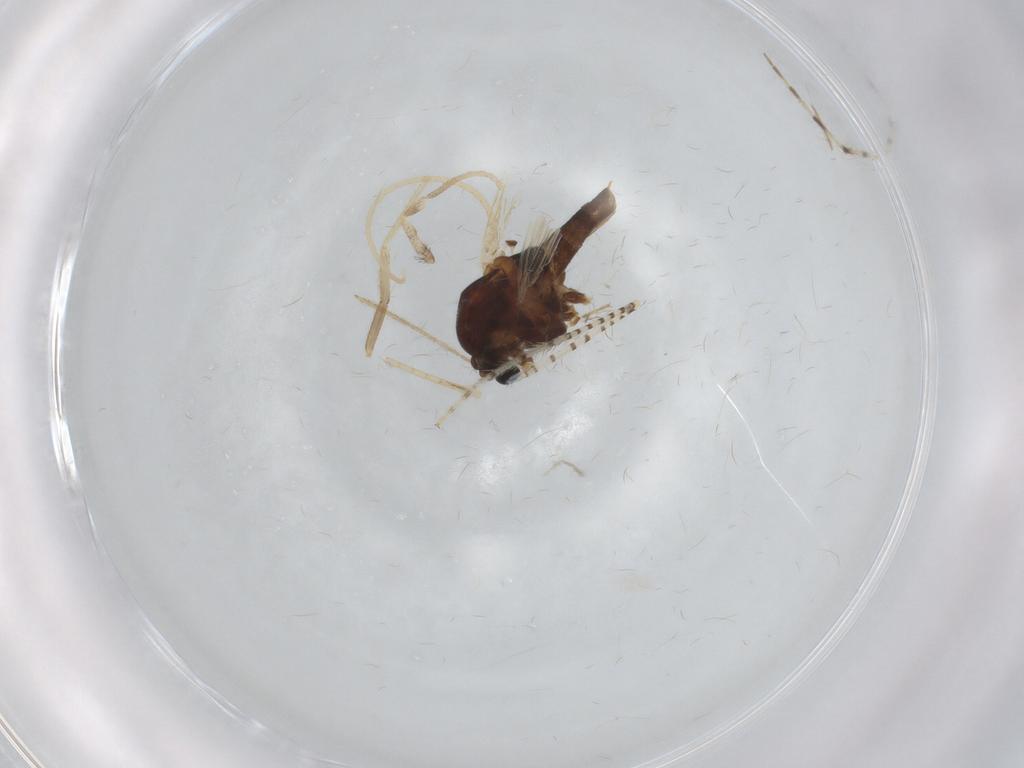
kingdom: Animalia
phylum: Arthropoda
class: Insecta
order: Diptera
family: Chironomidae
